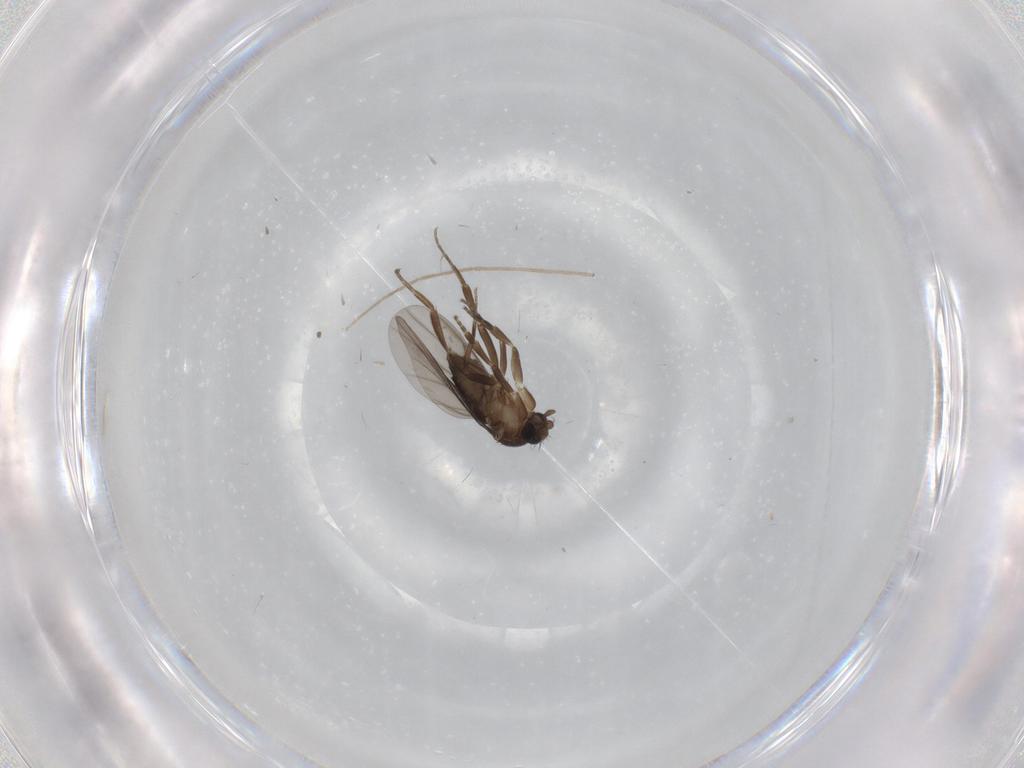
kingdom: Animalia
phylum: Arthropoda
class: Insecta
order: Diptera
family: Phoridae
